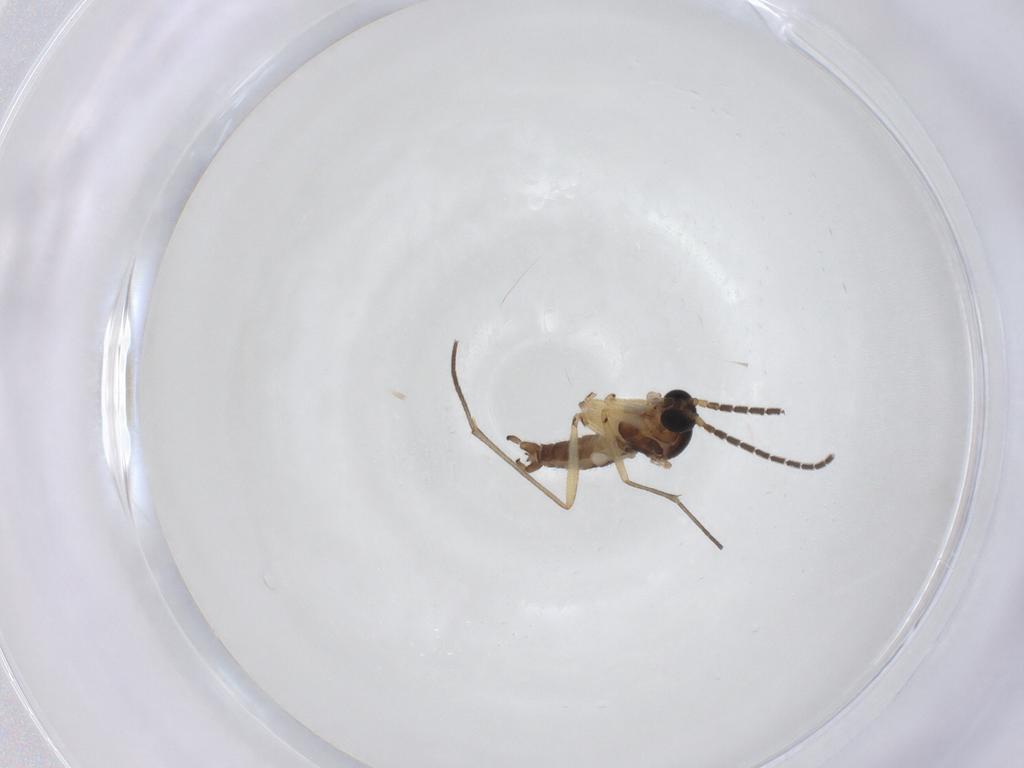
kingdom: Animalia
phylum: Arthropoda
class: Insecta
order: Diptera
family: Sciaridae
